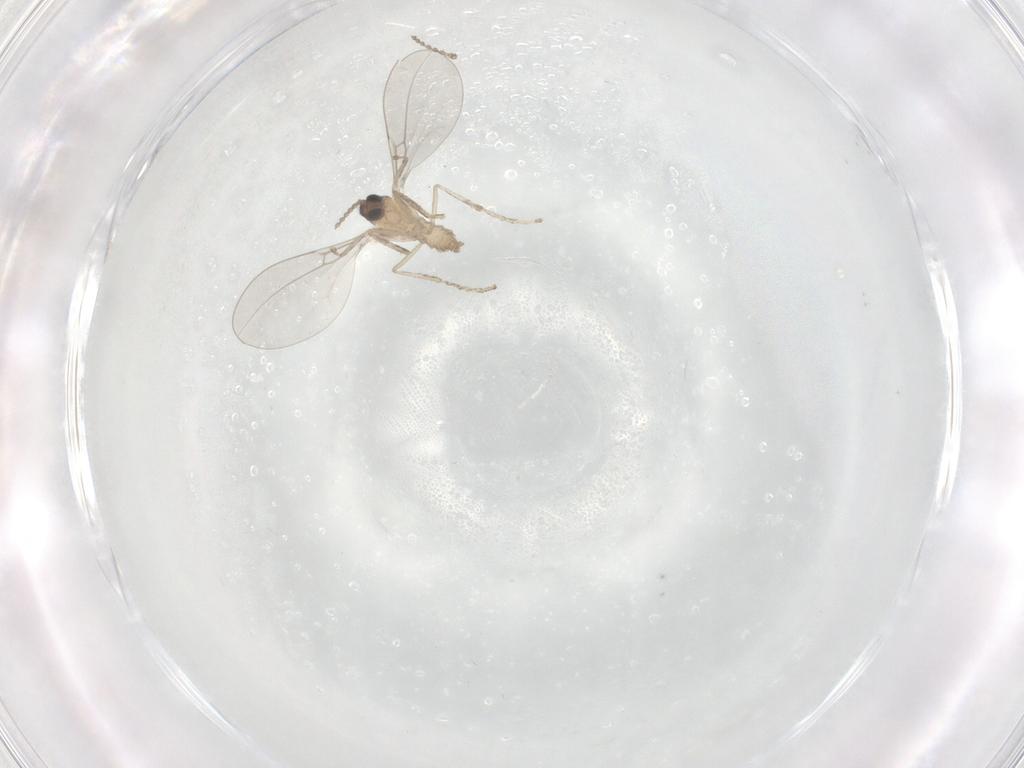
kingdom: Animalia
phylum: Arthropoda
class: Insecta
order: Diptera
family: Cecidomyiidae
